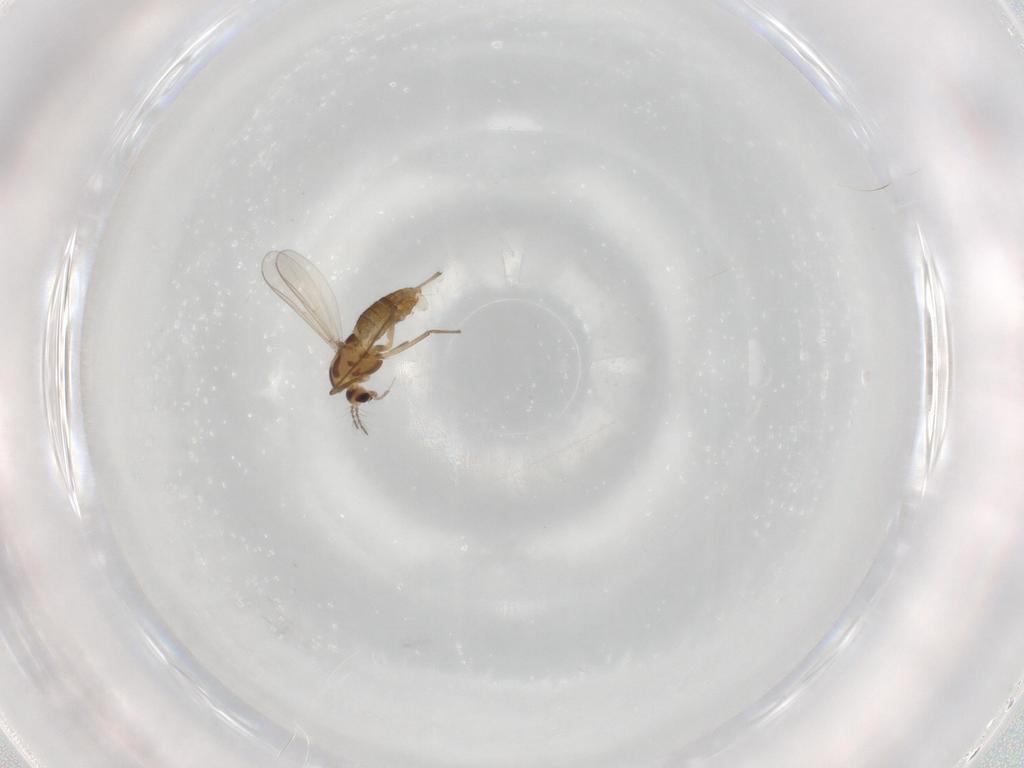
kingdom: Animalia
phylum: Arthropoda
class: Insecta
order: Diptera
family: Chironomidae
